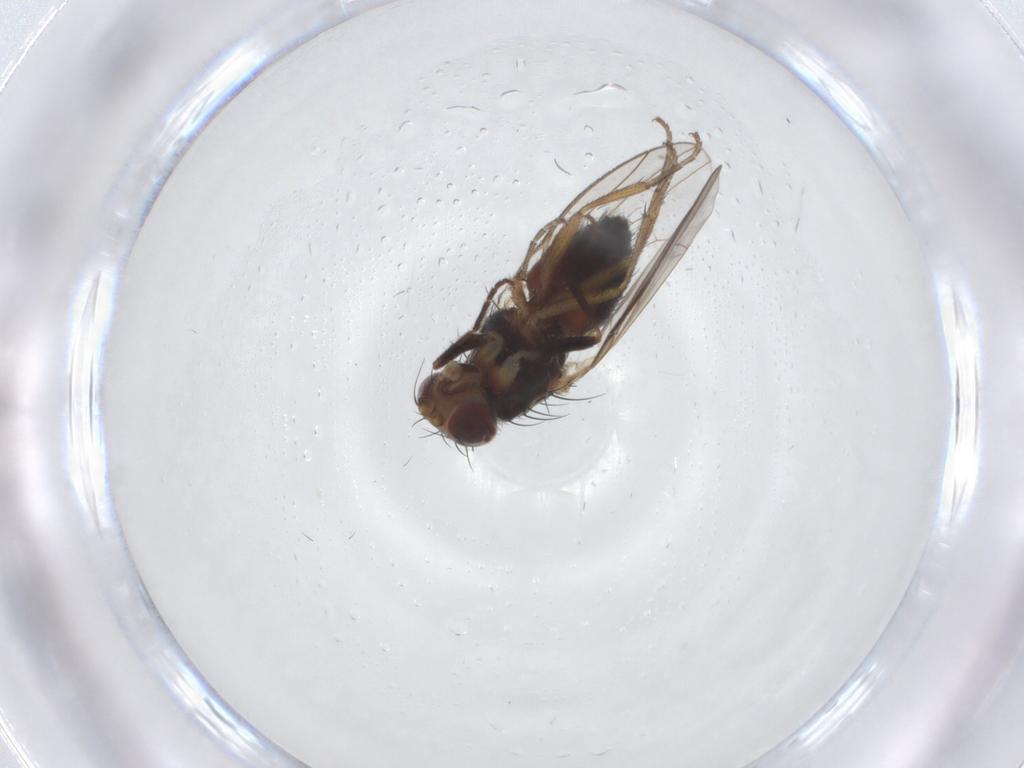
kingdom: Animalia
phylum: Arthropoda
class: Insecta
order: Diptera
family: Heleomyzidae
